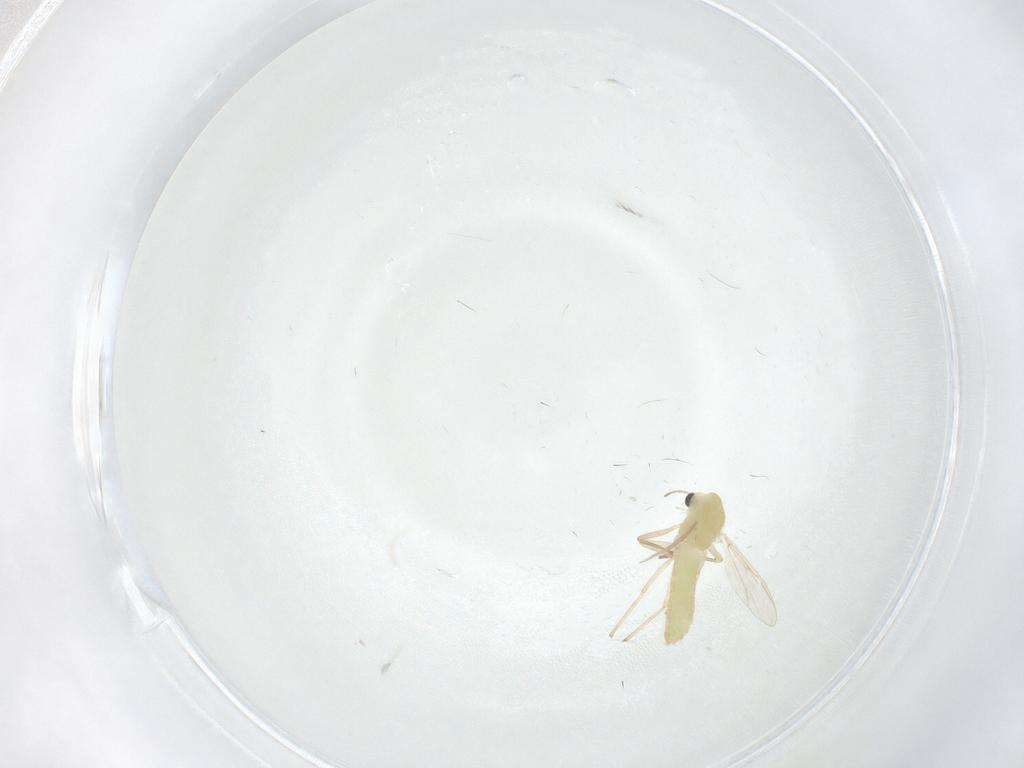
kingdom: Animalia
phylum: Arthropoda
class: Insecta
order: Diptera
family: Chironomidae
